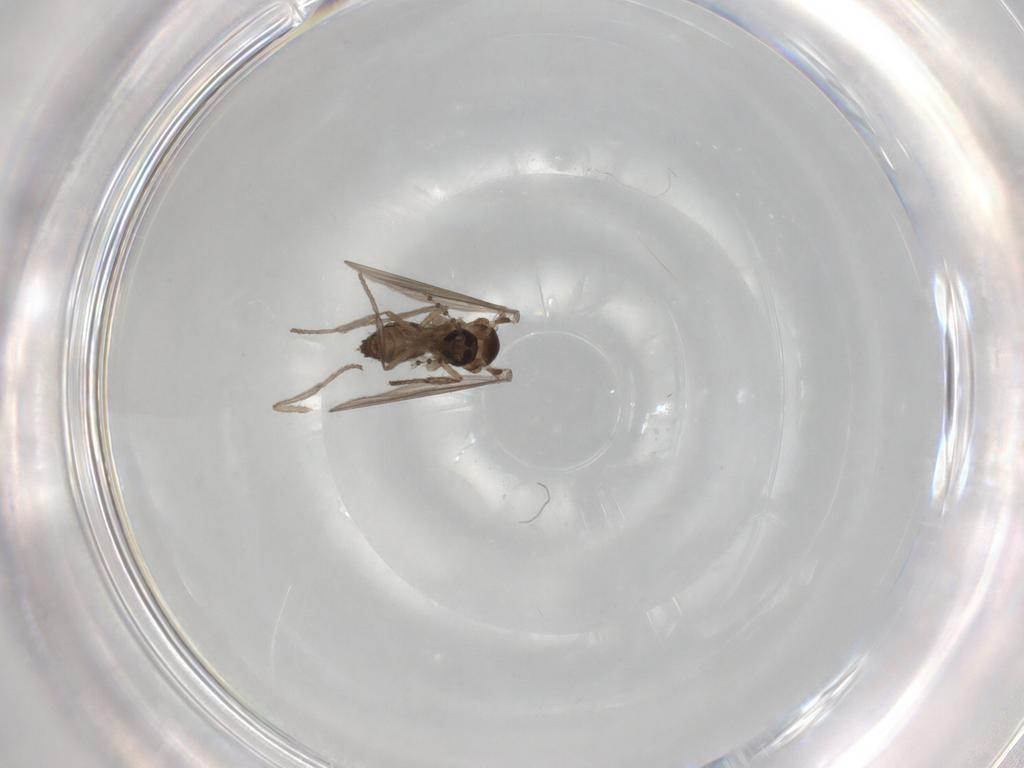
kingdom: Animalia
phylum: Arthropoda
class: Insecta
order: Diptera
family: Psychodidae
